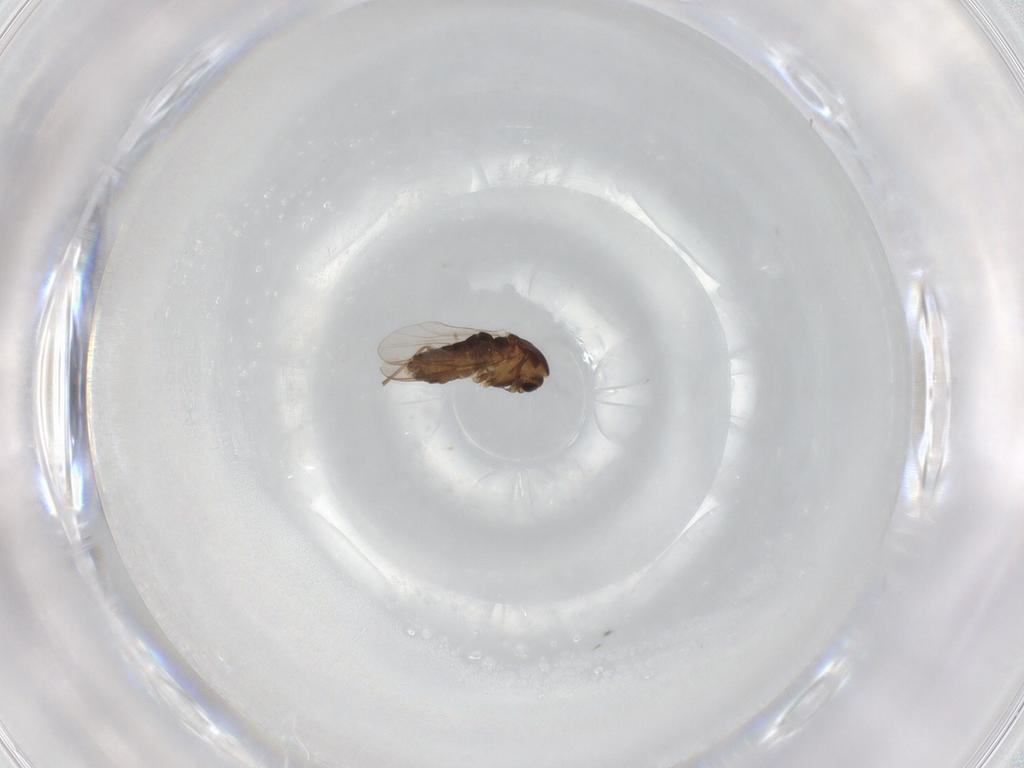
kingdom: Animalia
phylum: Arthropoda
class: Insecta
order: Diptera
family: Chironomidae
